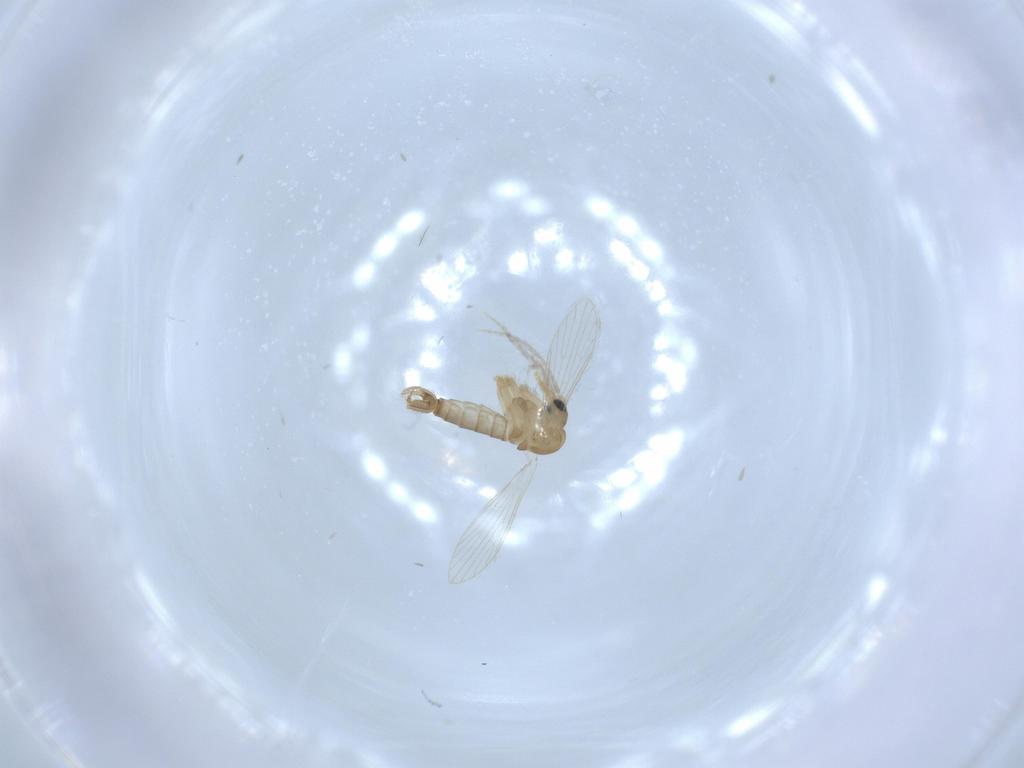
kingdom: Animalia
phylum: Arthropoda
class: Insecta
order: Diptera
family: Psychodidae
